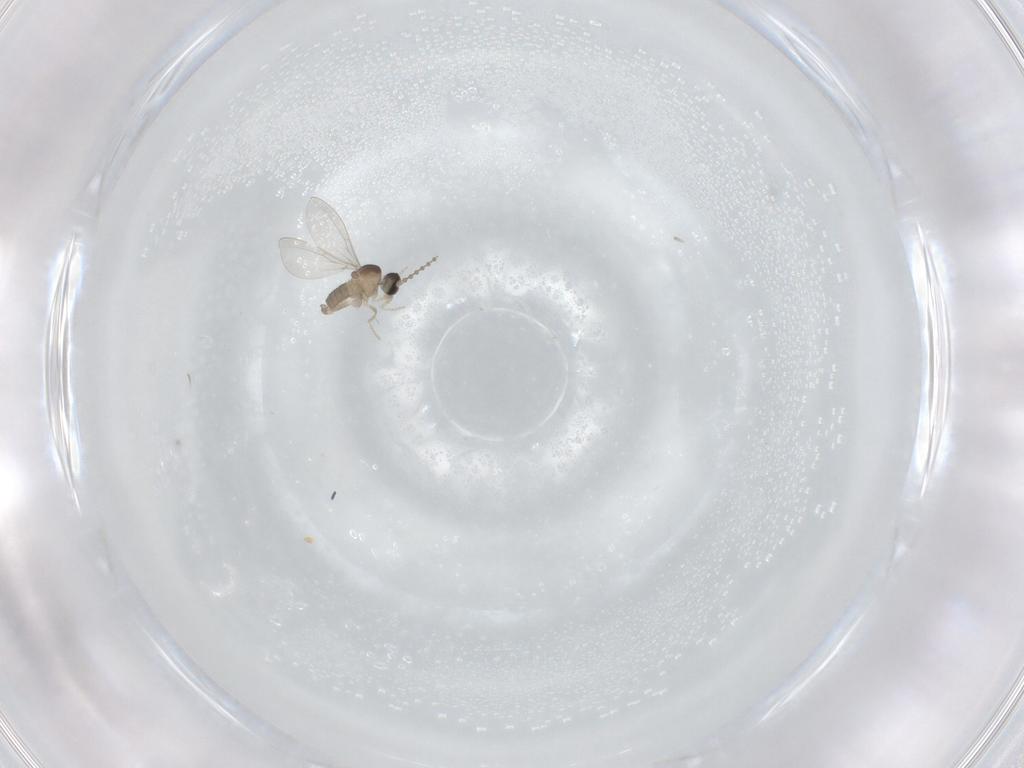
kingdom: Animalia
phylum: Arthropoda
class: Insecta
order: Diptera
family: Cecidomyiidae
